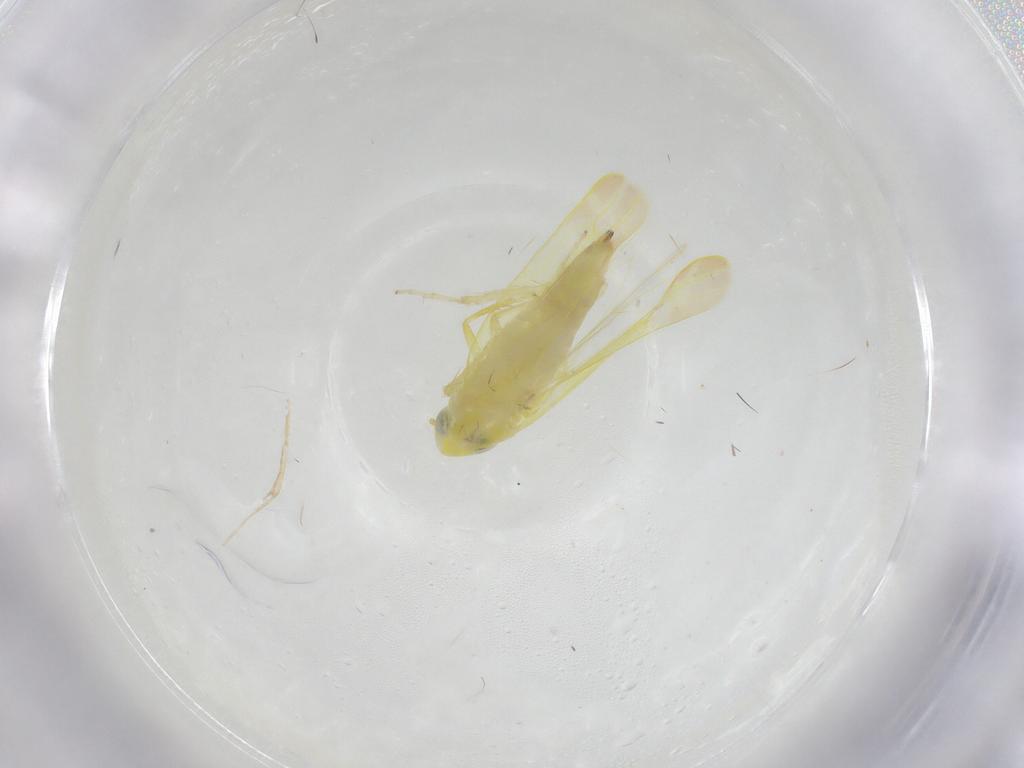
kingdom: Animalia
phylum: Arthropoda
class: Insecta
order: Hemiptera
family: Cicadellidae
